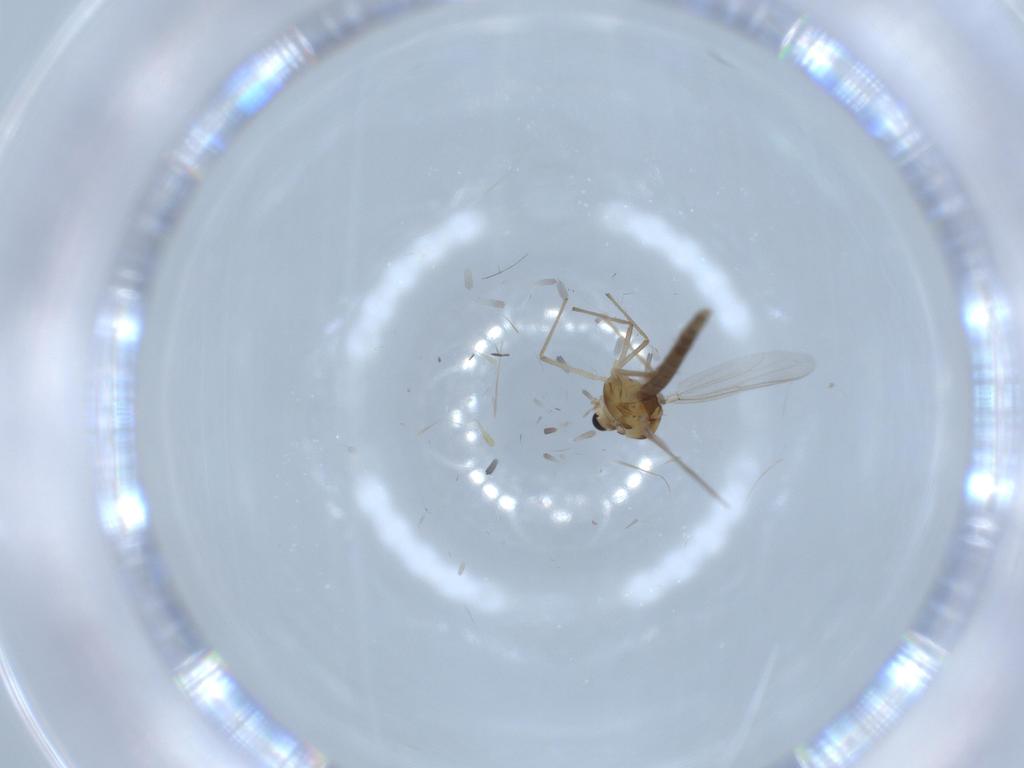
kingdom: Animalia
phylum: Arthropoda
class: Insecta
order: Diptera
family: Chironomidae
